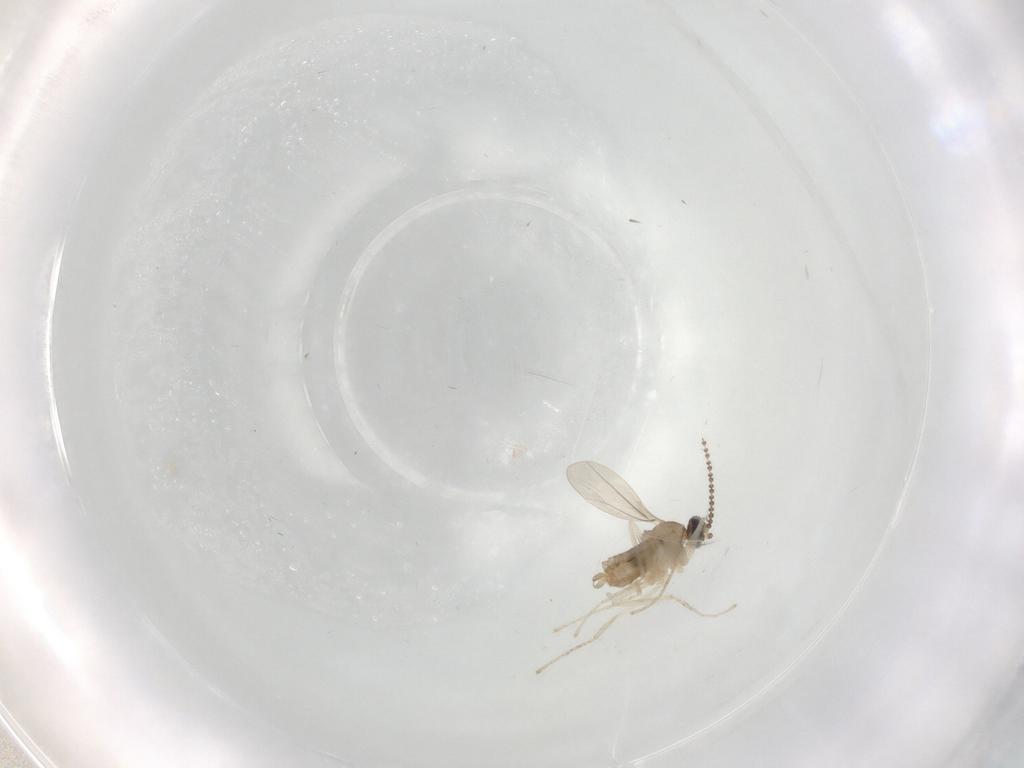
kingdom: Animalia
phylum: Arthropoda
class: Insecta
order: Diptera
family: Cecidomyiidae
